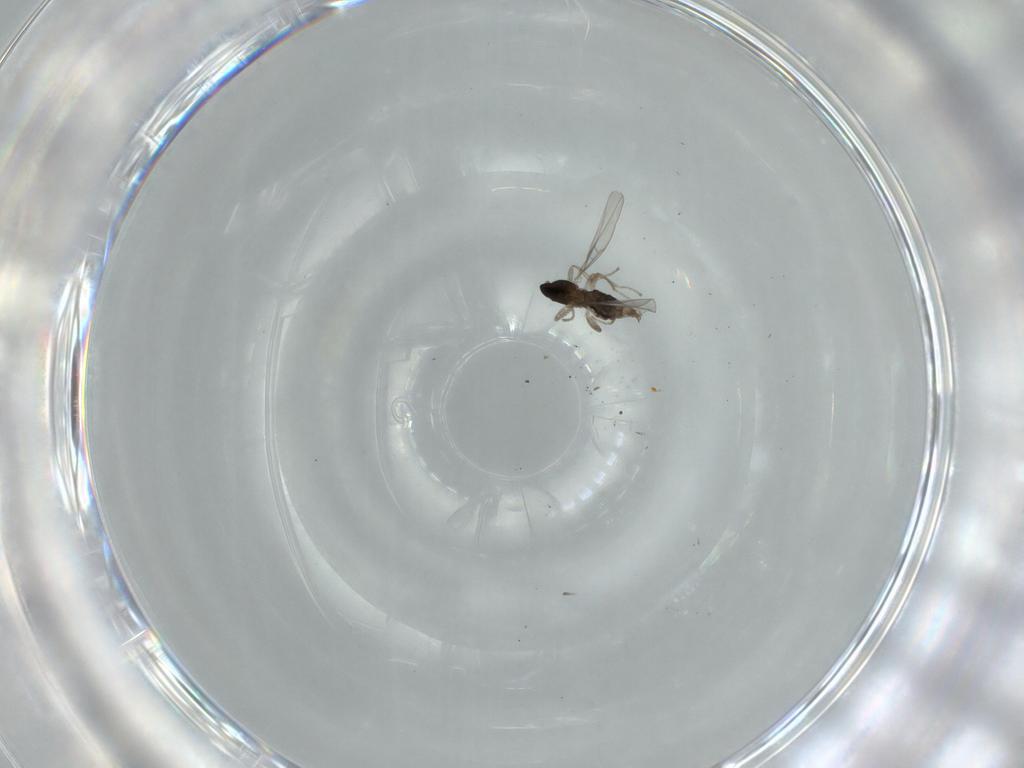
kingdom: Animalia
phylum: Arthropoda
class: Insecta
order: Diptera
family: Cecidomyiidae
